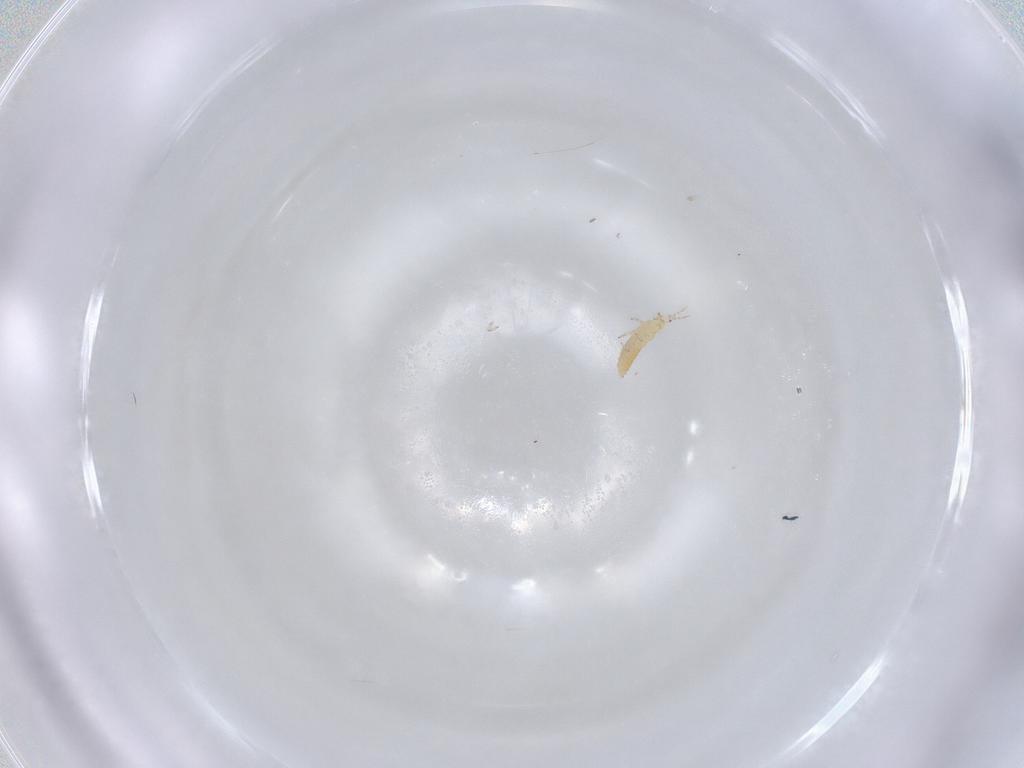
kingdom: Animalia
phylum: Arthropoda
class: Insecta
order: Thysanoptera
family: Thripidae
